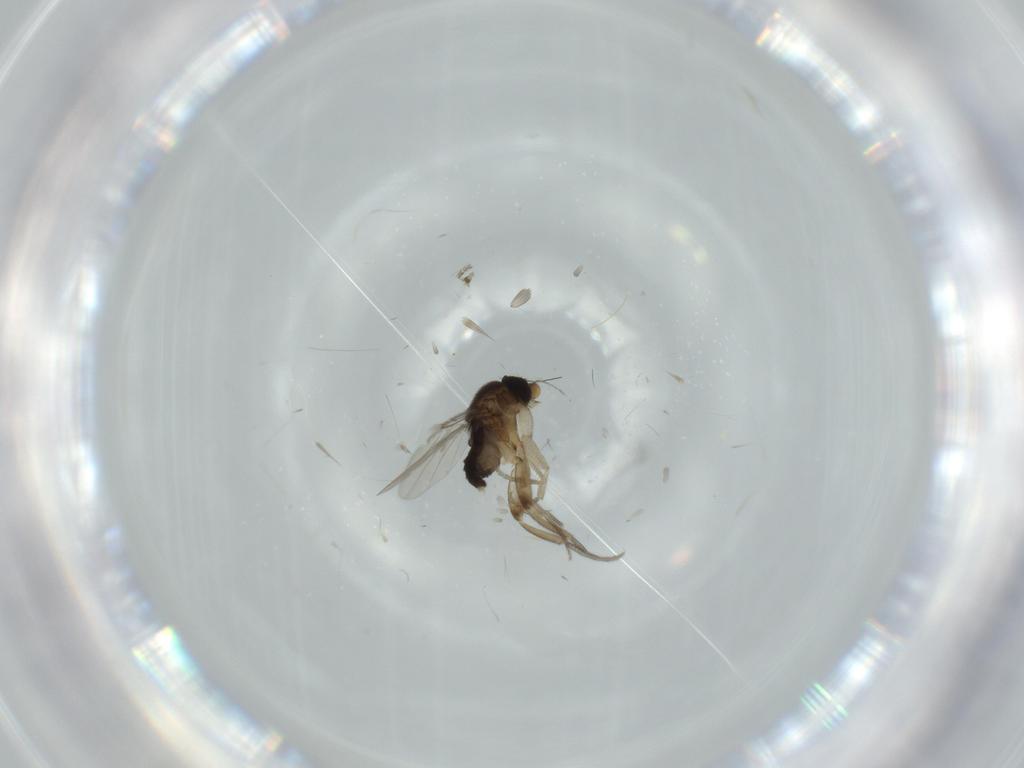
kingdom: Animalia
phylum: Arthropoda
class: Insecta
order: Diptera
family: Phoridae
